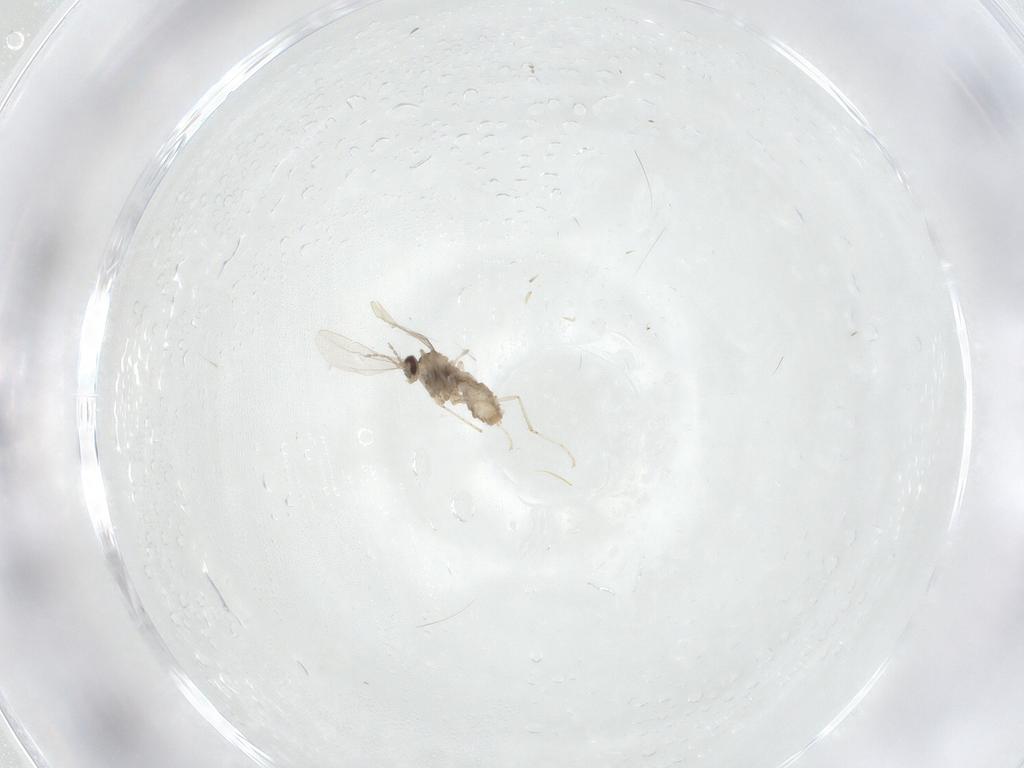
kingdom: Animalia
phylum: Arthropoda
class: Insecta
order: Diptera
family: Cecidomyiidae
